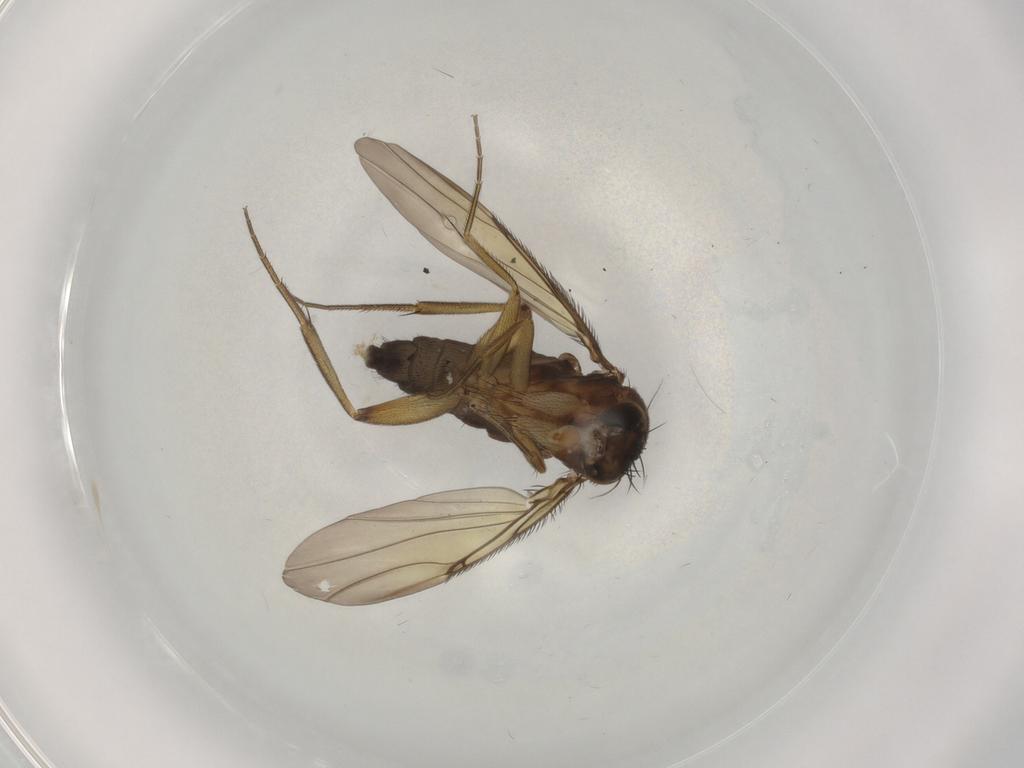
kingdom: Animalia
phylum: Arthropoda
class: Insecta
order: Diptera
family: Phoridae
